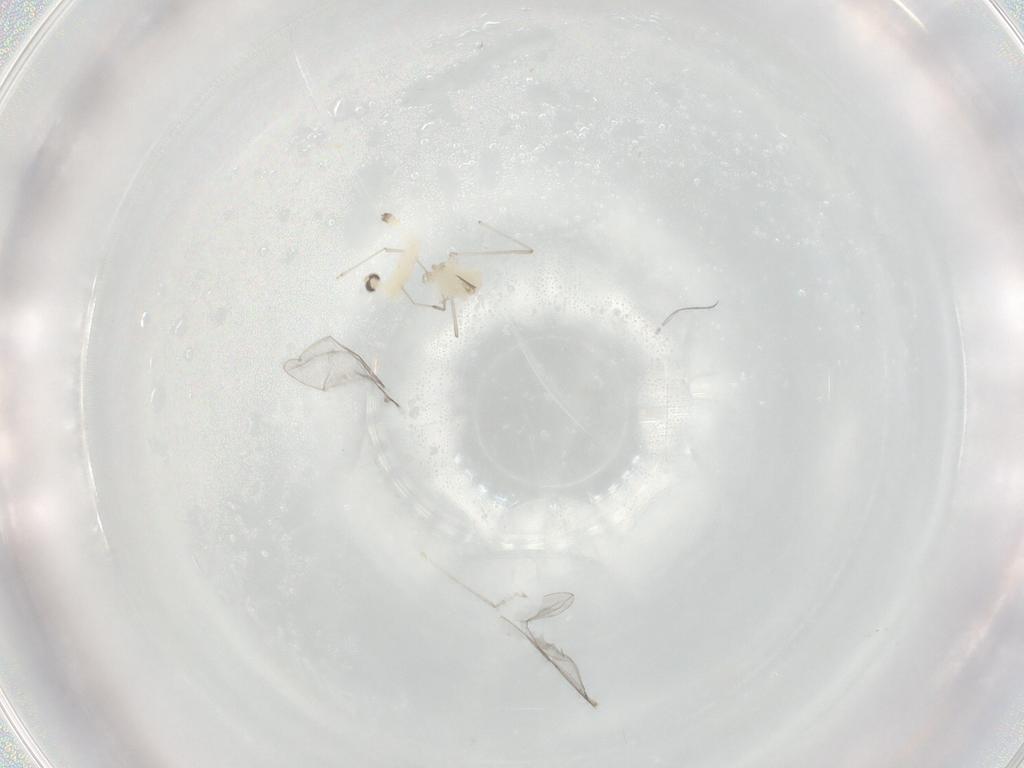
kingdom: Animalia
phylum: Arthropoda
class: Insecta
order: Diptera
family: Cecidomyiidae
